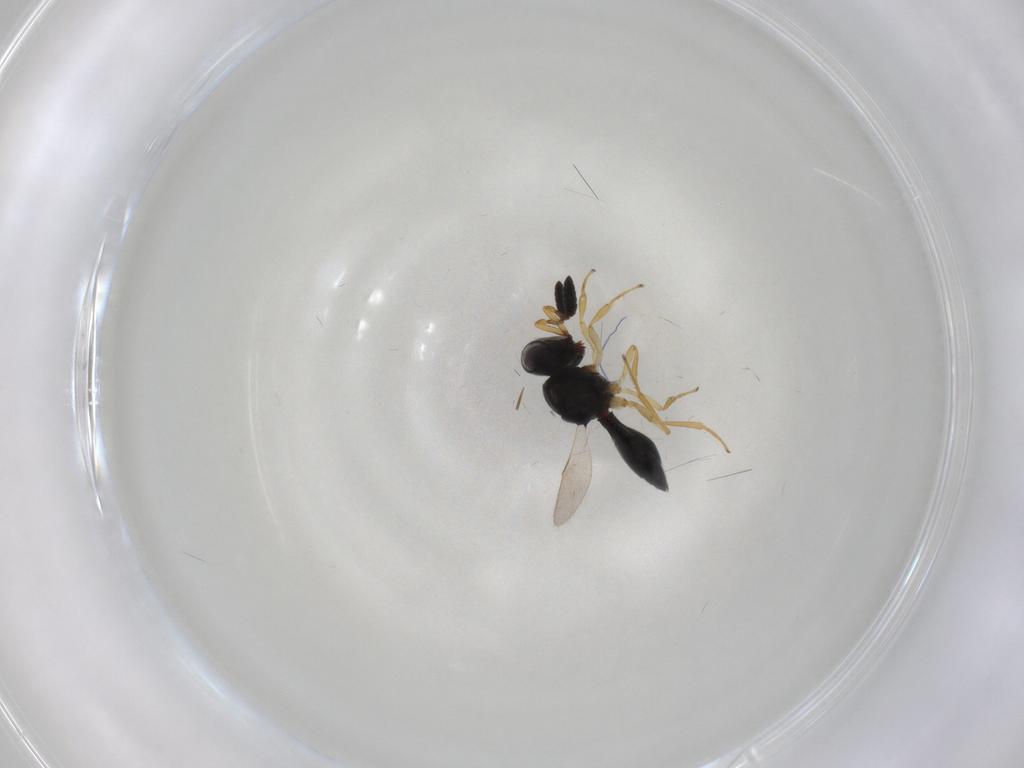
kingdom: Animalia
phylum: Arthropoda
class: Insecta
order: Hymenoptera
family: Scelionidae
